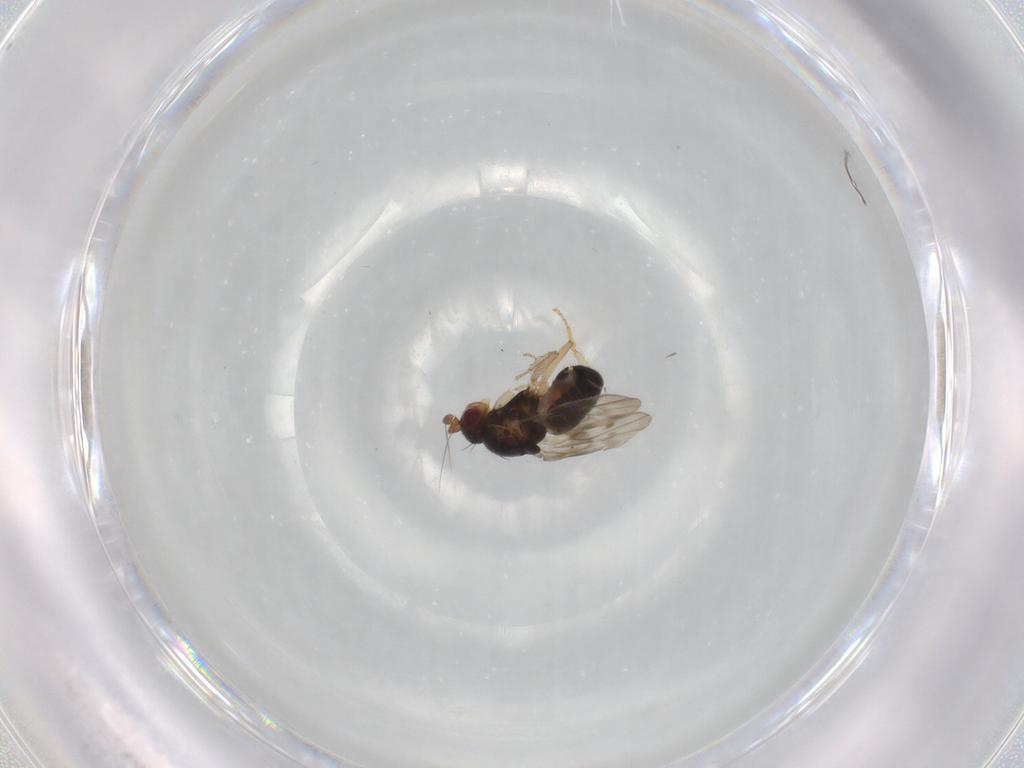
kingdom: Animalia
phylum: Arthropoda
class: Insecta
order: Diptera
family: Sphaeroceridae
